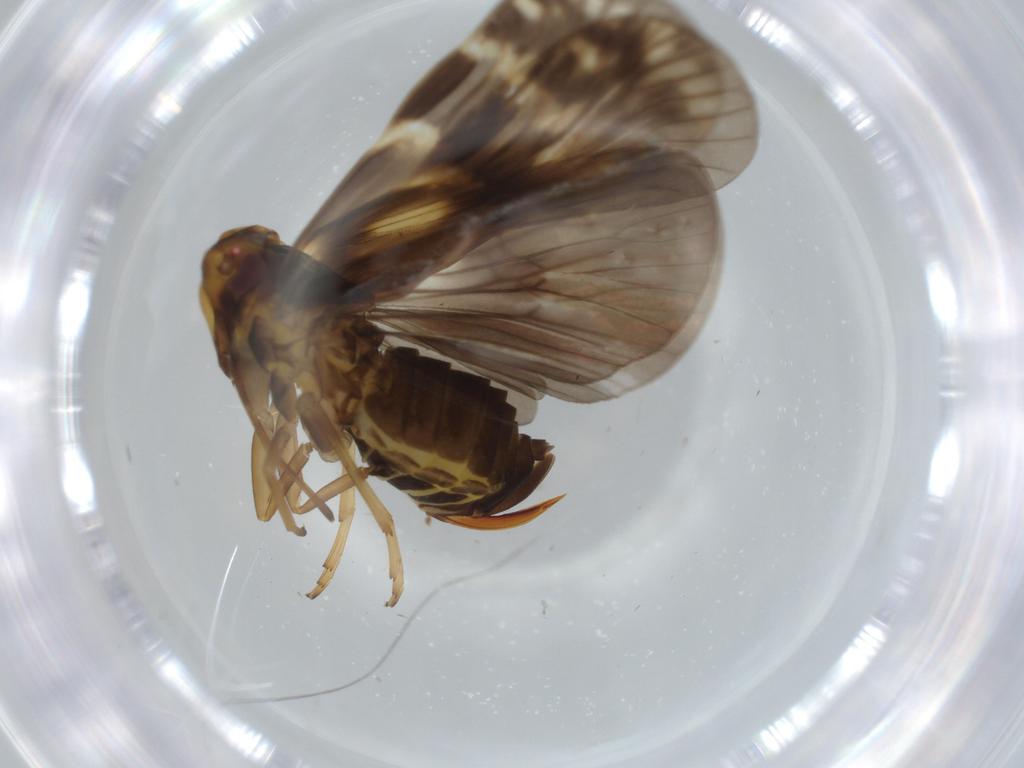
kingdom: Animalia
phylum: Arthropoda
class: Insecta
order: Hemiptera
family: Cixiidae
